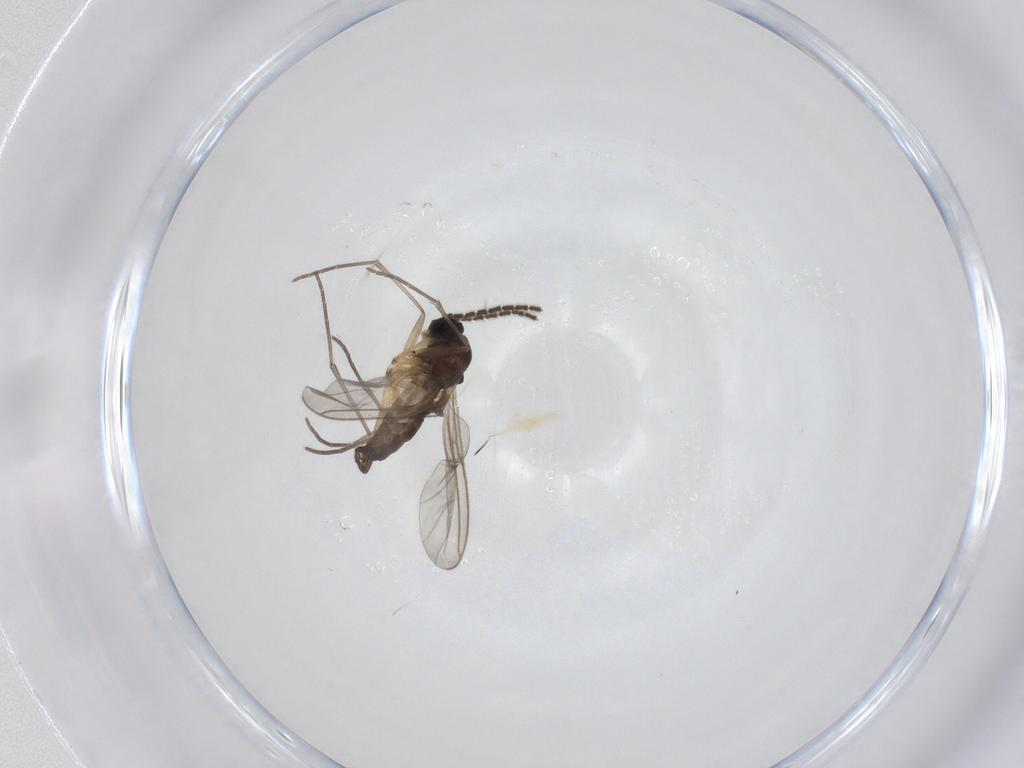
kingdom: Animalia
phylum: Arthropoda
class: Insecta
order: Diptera
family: Sciaridae
